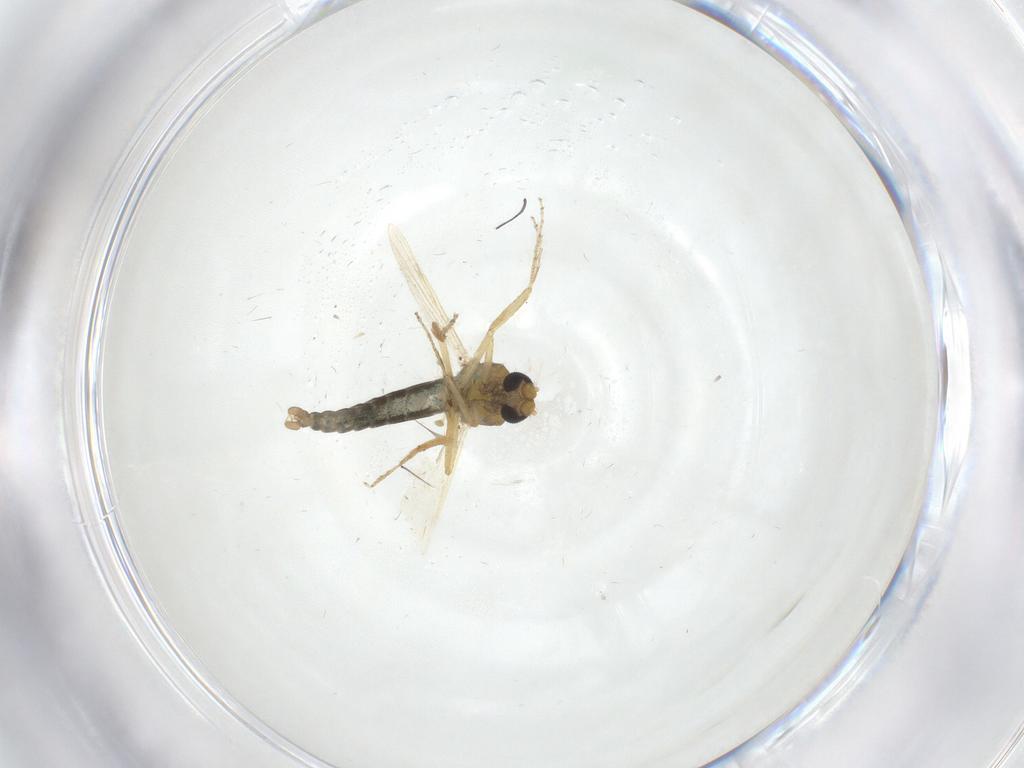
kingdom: Animalia
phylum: Arthropoda
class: Insecta
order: Diptera
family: Ceratopogonidae
